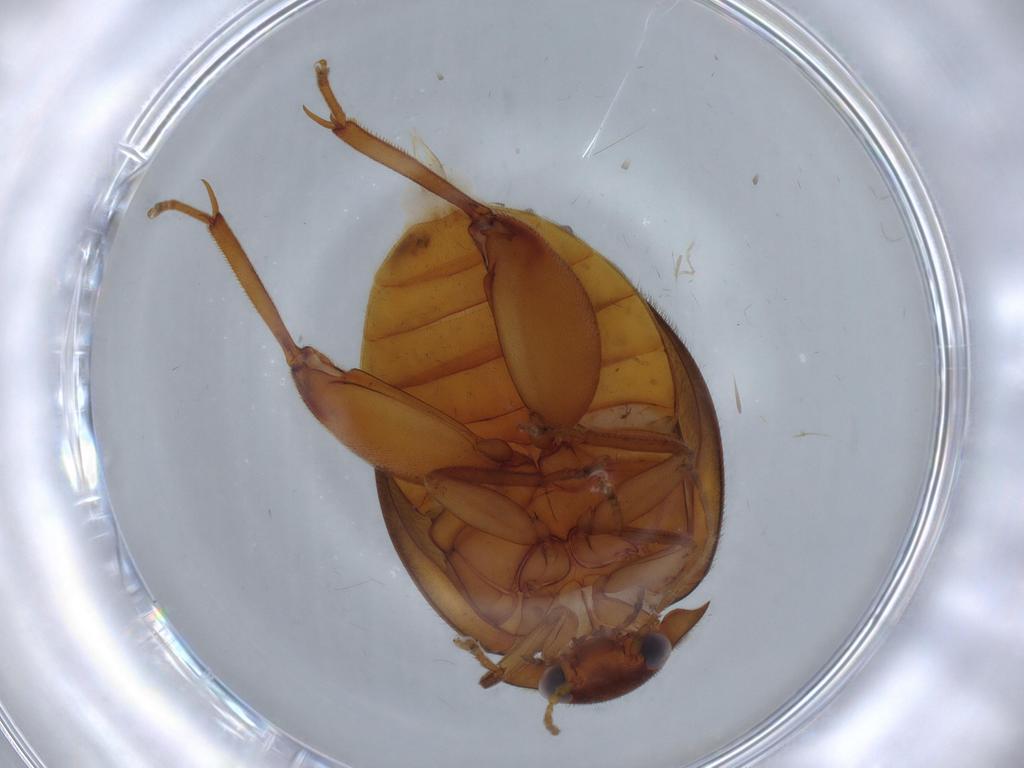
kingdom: Animalia
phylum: Arthropoda
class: Insecta
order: Coleoptera
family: Scirtidae
